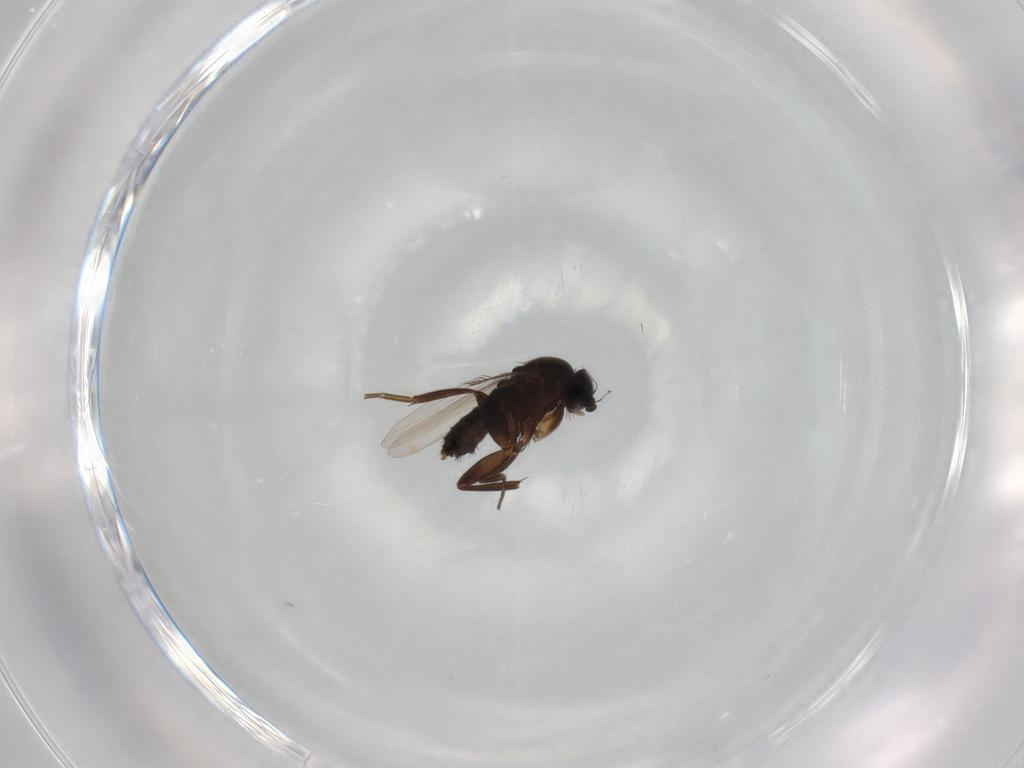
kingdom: Animalia
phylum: Arthropoda
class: Insecta
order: Diptera
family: Phoridae
